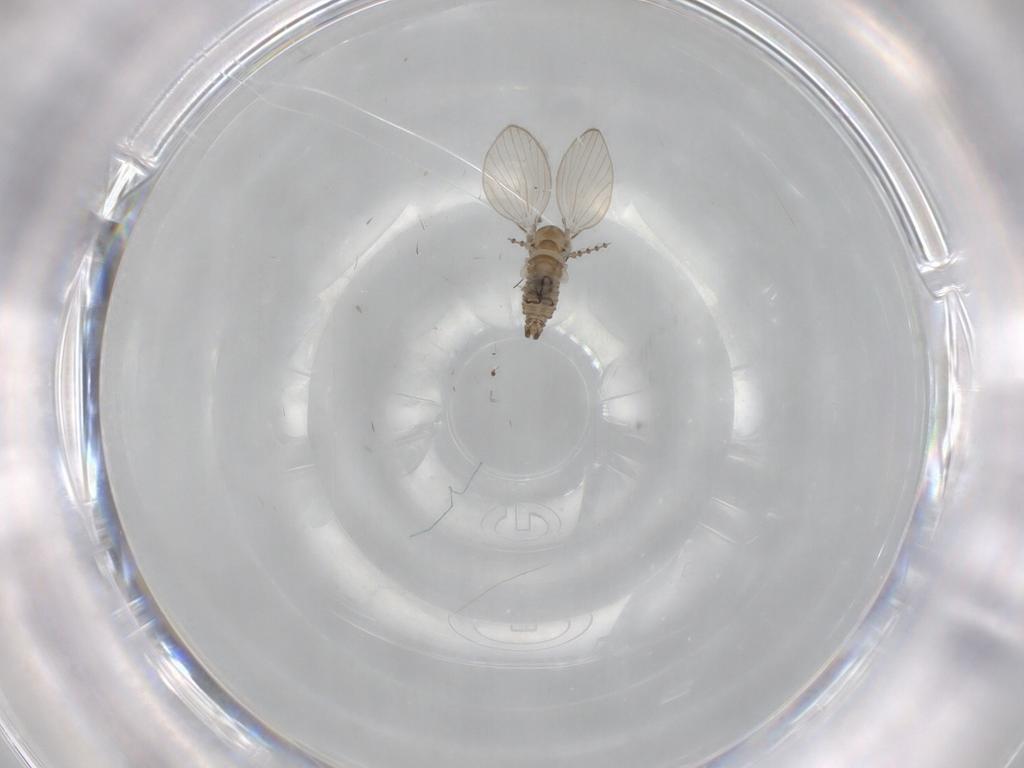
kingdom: Animalia
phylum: Arthropoda
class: Insecta
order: Diptera
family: Psychodidae
